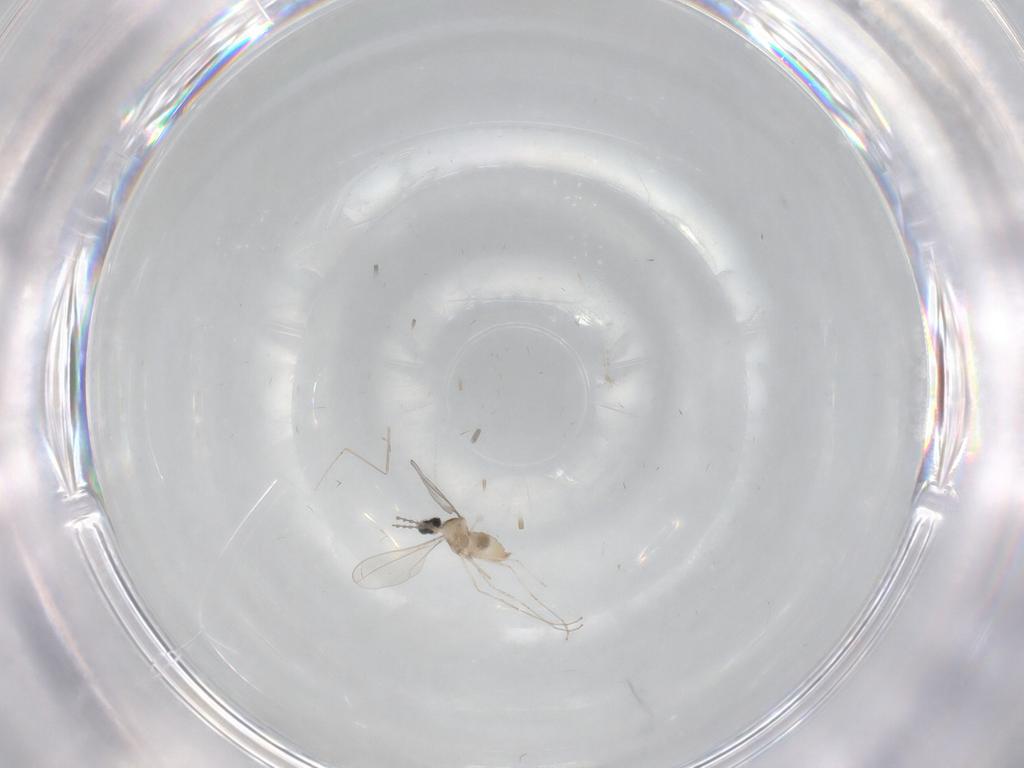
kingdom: Animalia
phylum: Arthropoda
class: Insecta
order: Diptera
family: Cecidomyiidae
